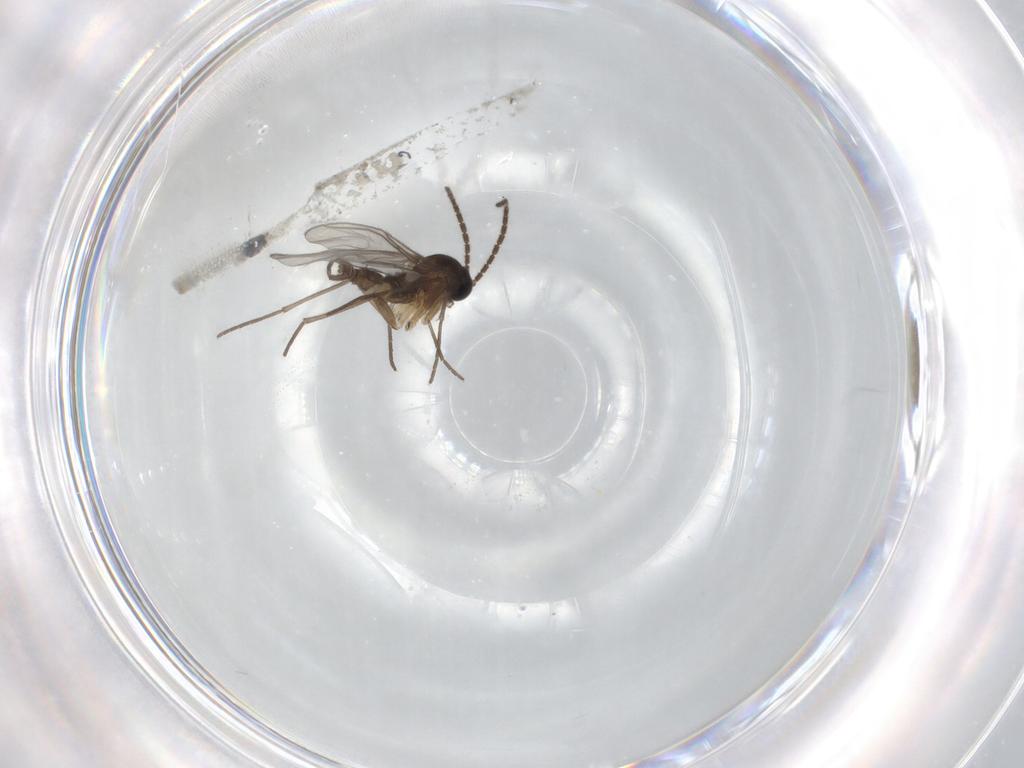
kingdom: Animalia
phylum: Arthropoda
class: Insecta
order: Diptera
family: Cecidomyiidae
